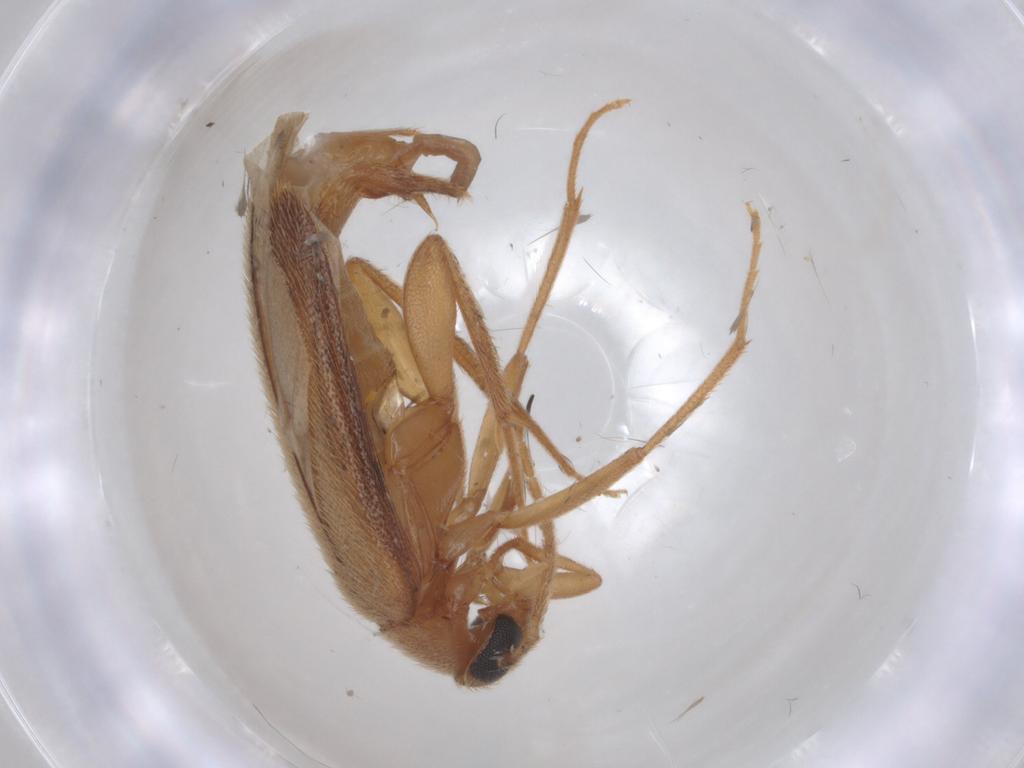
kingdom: Animalia
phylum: Arthropoda
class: Insecta
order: Coleoptera
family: Scraptiidae
